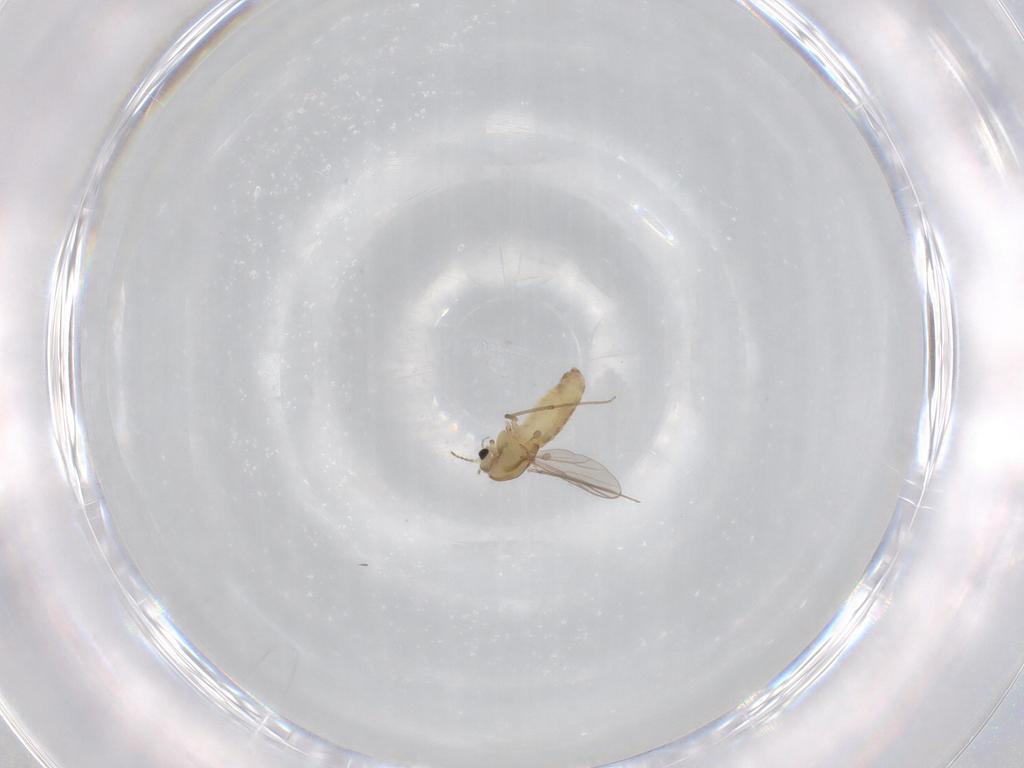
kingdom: Animalia
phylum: Arthropoda
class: Insecta
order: Diptera
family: Chironomidae
